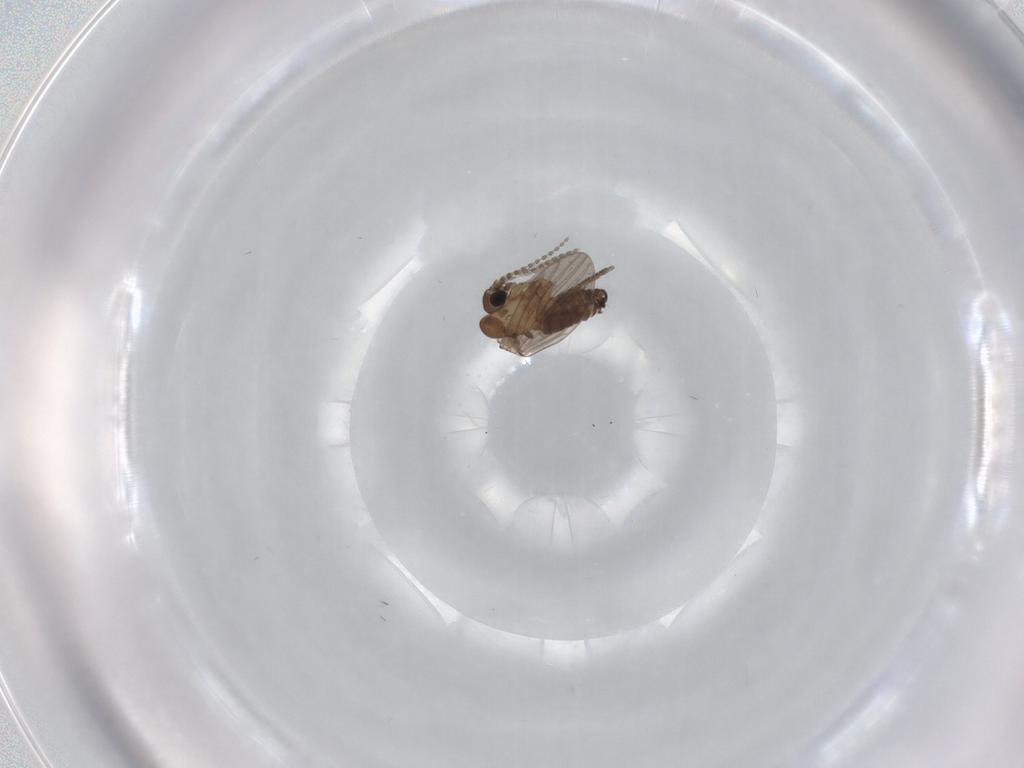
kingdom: Animalia
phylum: Arthropoda
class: Insecta
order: Diptera
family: Psychodidae
